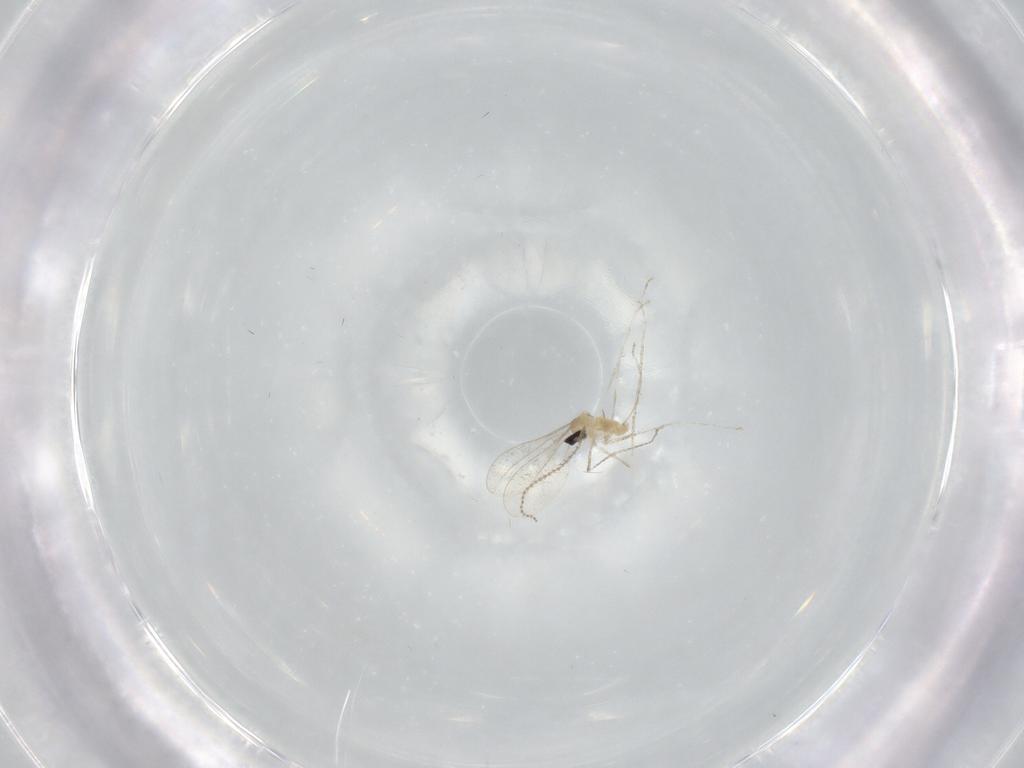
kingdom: Animalia
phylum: Arthropoda
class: Insecta
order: Diptera
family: Cecidomyiidae
